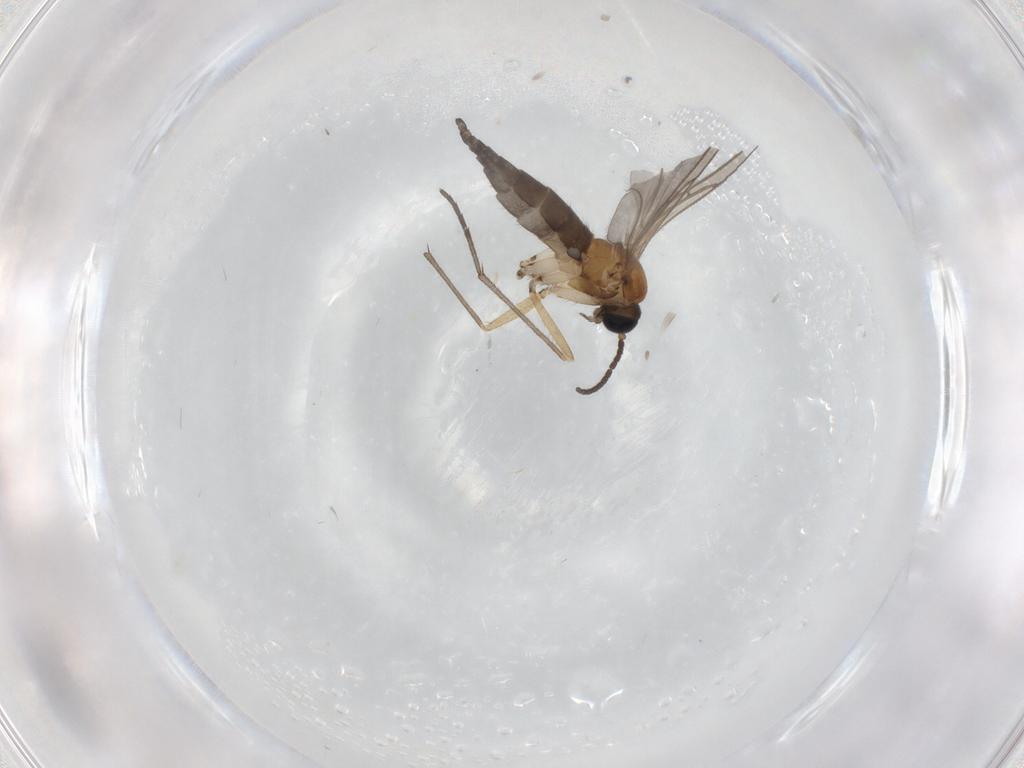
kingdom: Animalia
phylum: Arthropoda
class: Insecta
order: Diptera
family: Sciaridae
